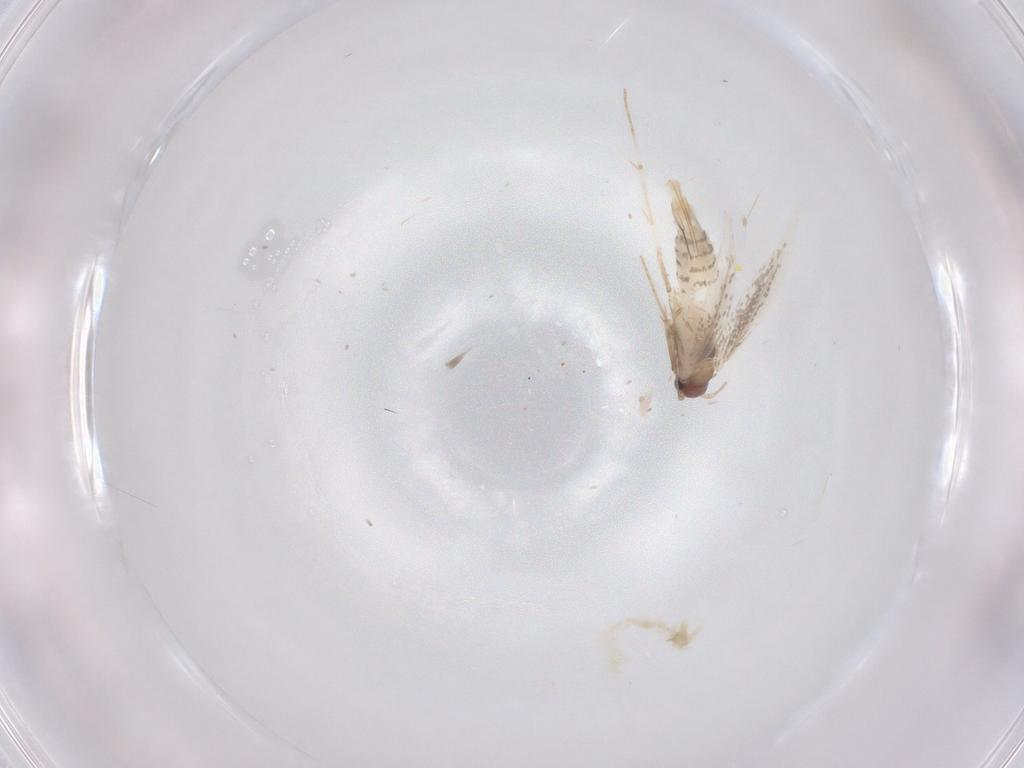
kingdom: Animalia
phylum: Arthropoda
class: Insecta
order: Lepidoptera
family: Tineidae
